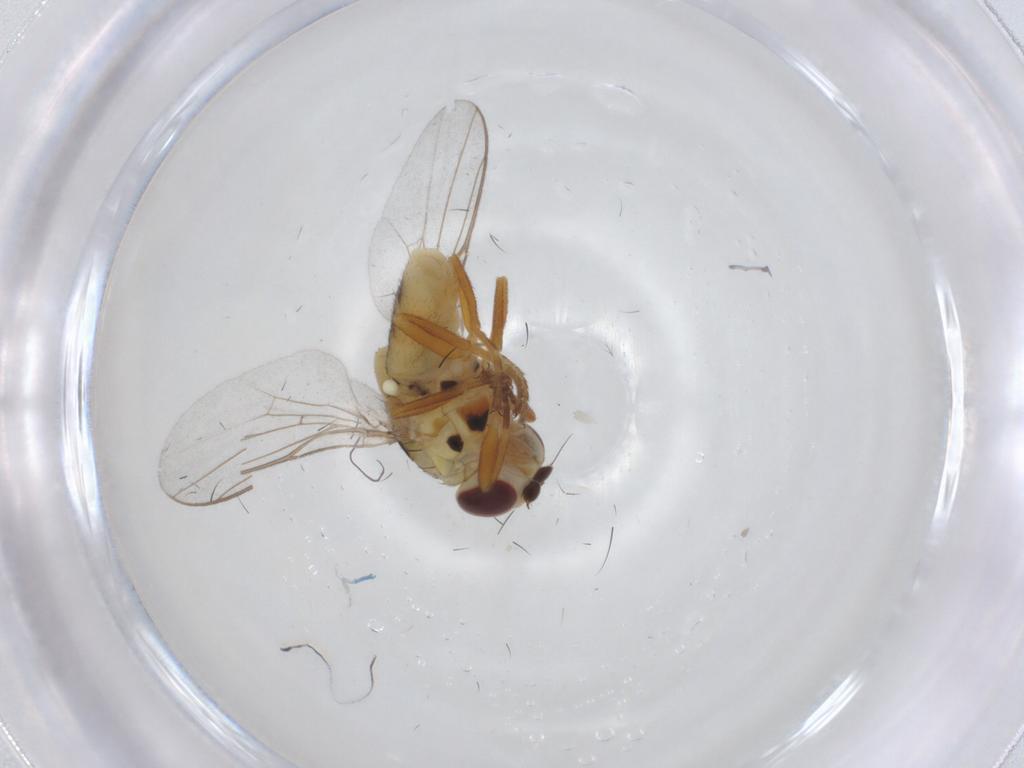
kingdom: Animalia
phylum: Arthropoda
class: Insecta
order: Diptera
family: Chloropidae
